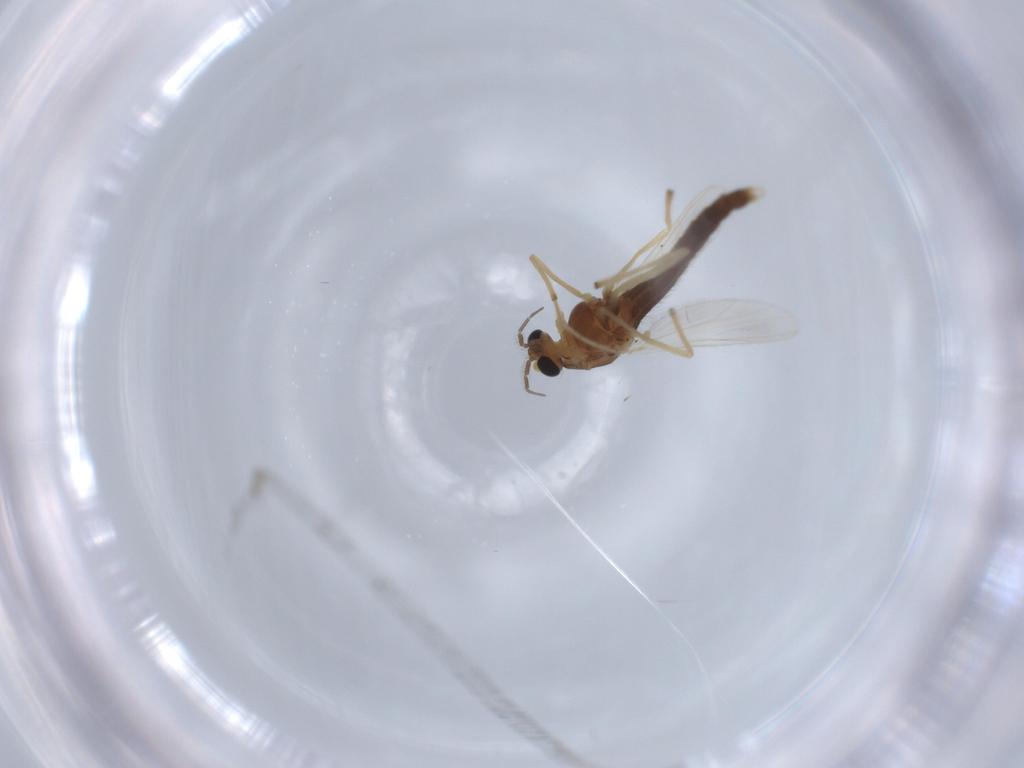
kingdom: Animalia
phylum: Arthropoda
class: Insecta
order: Diptera
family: Chironomidae
